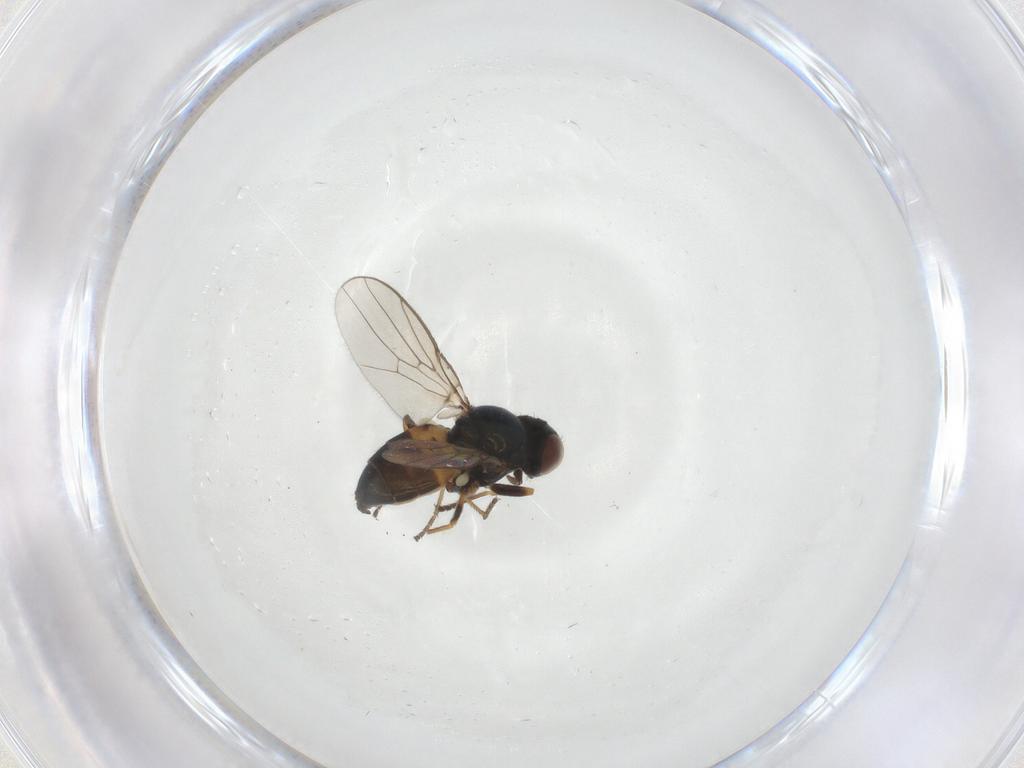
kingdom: Animalia
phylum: Arthropoda
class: Insecta
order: Diptera
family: Chloropidae
